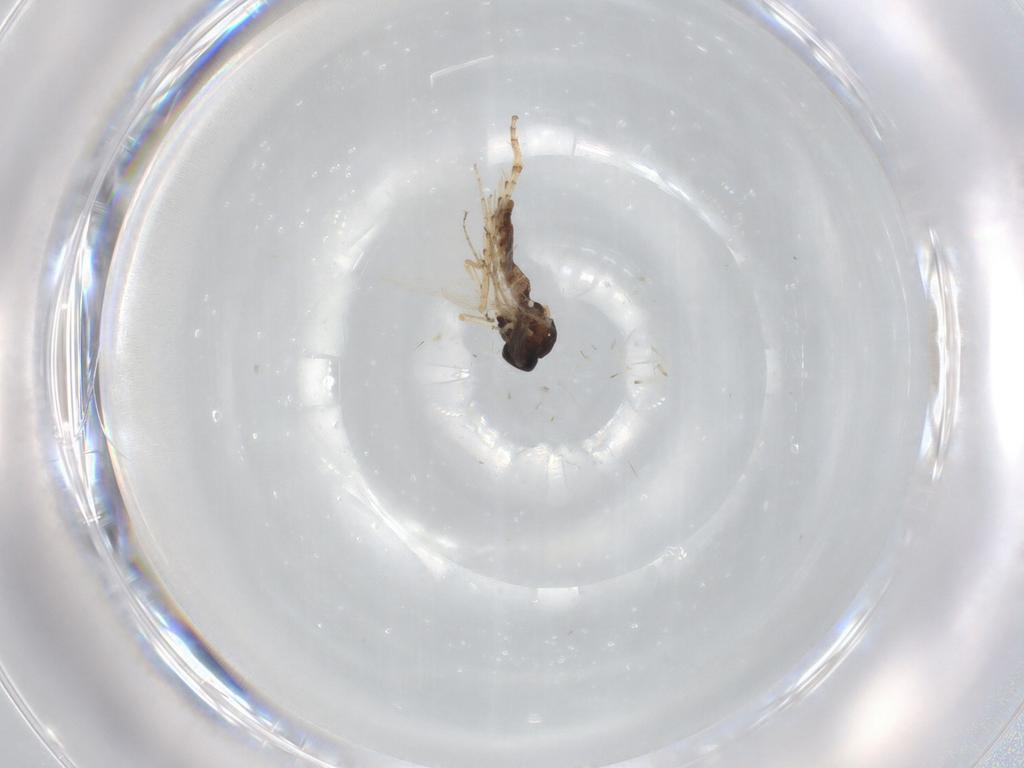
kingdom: Animalia
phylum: Arthropoda
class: Insecta
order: Diptera
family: Ceratopogonidae
